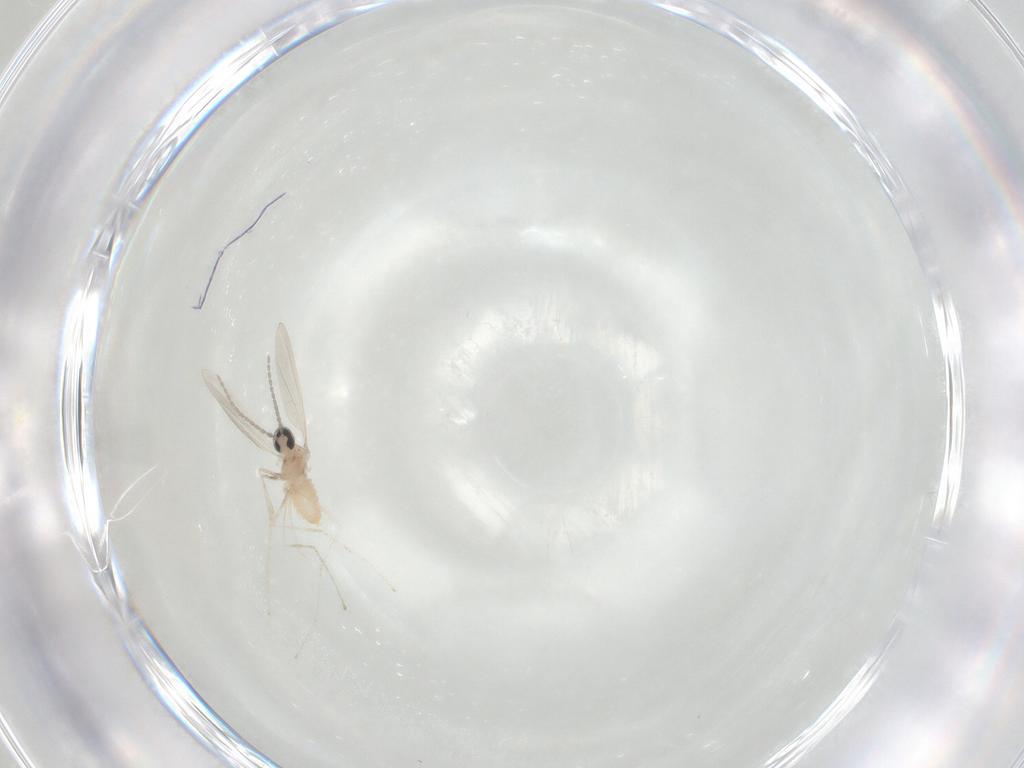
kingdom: Animalia
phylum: Arthropoda
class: Insecta
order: Diptera
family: Cecidomyiidae
